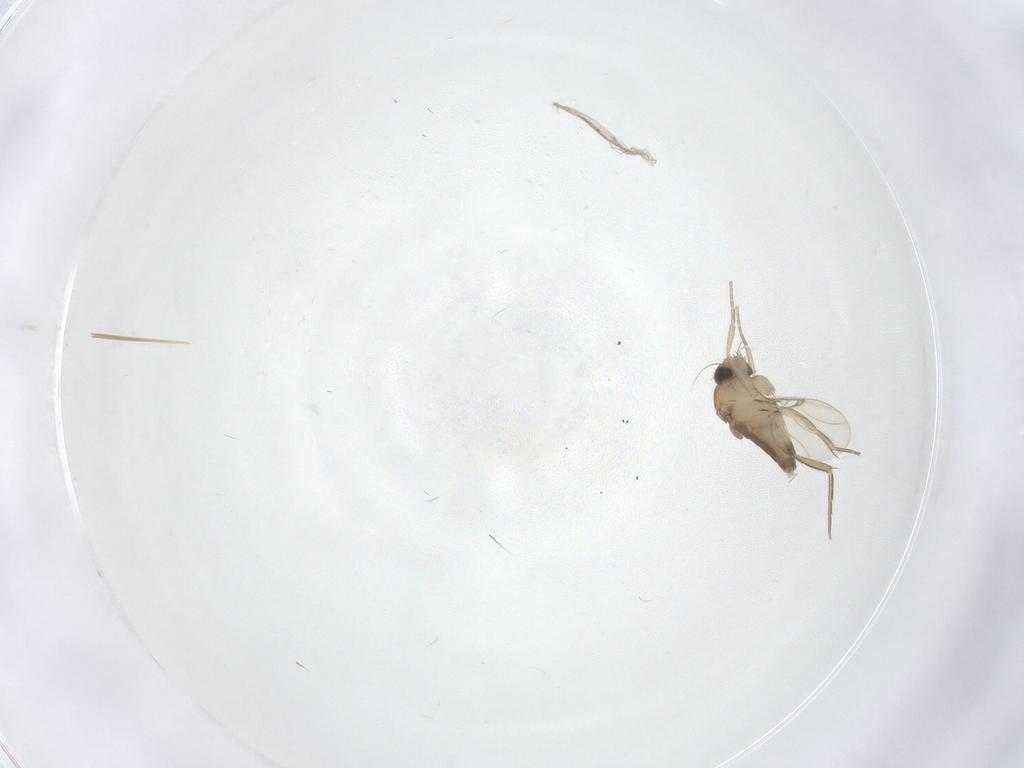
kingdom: Animalia
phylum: Arthropoda
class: Insecta
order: Diptera
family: Phoridae
